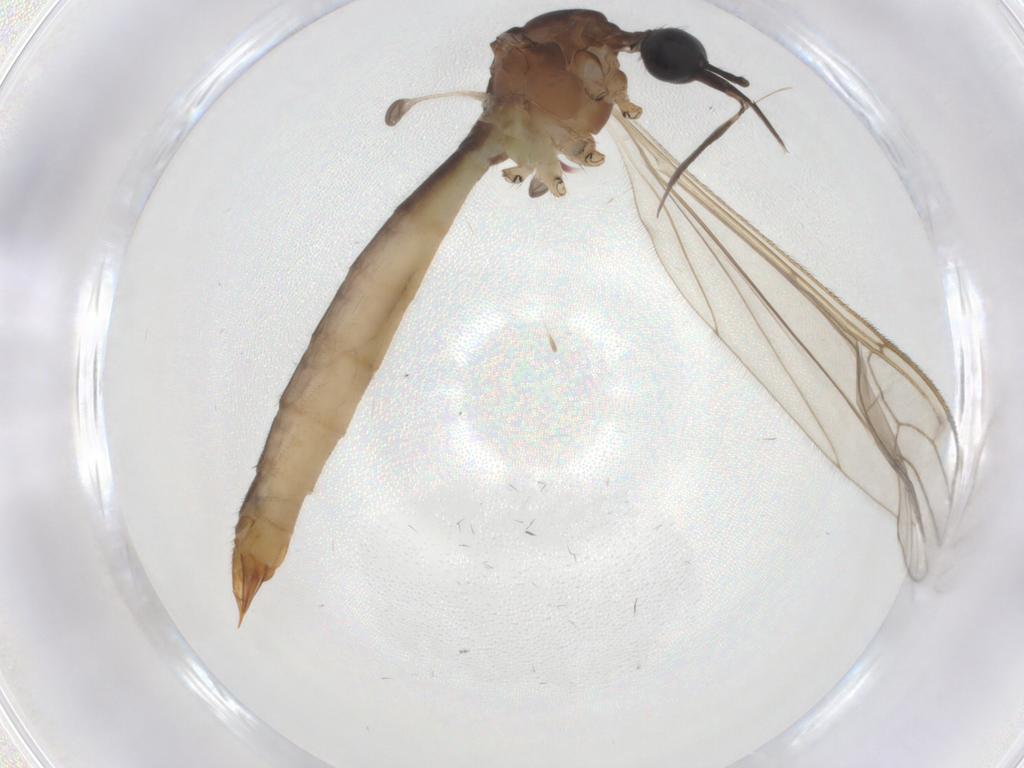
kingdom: Animalia
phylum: Arthropoda
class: Insecta
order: Diptera
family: Limoniidae
